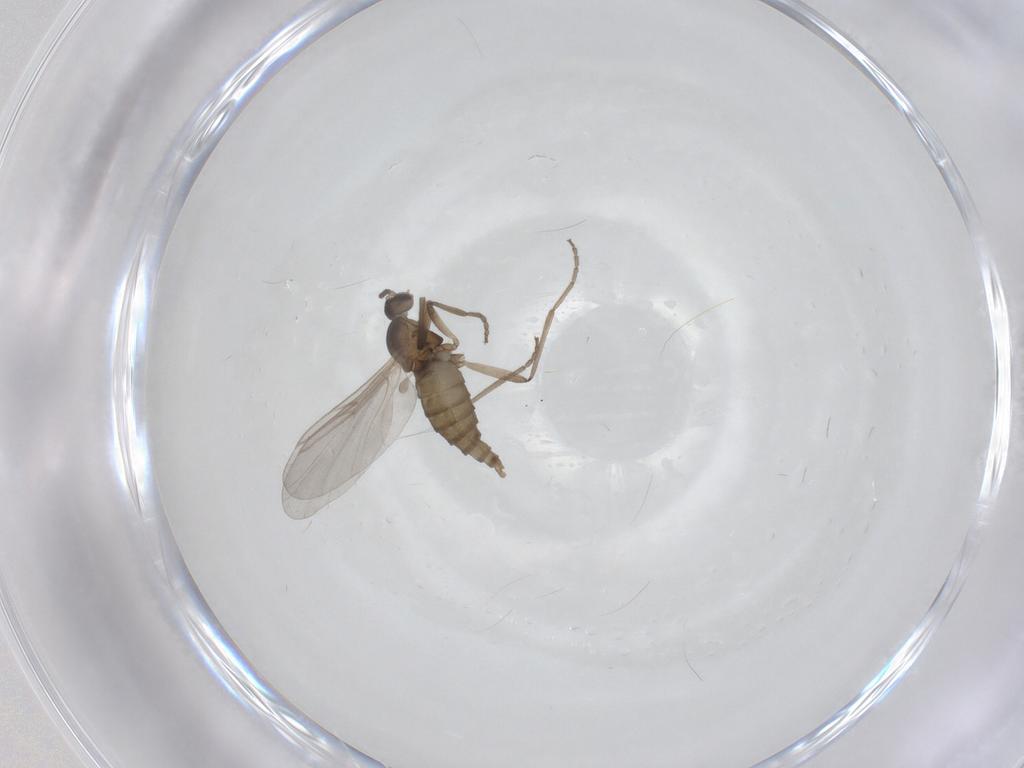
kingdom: Animalia
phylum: Arthropoda
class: Insecta
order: Diptera
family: Cecidomyiidae
